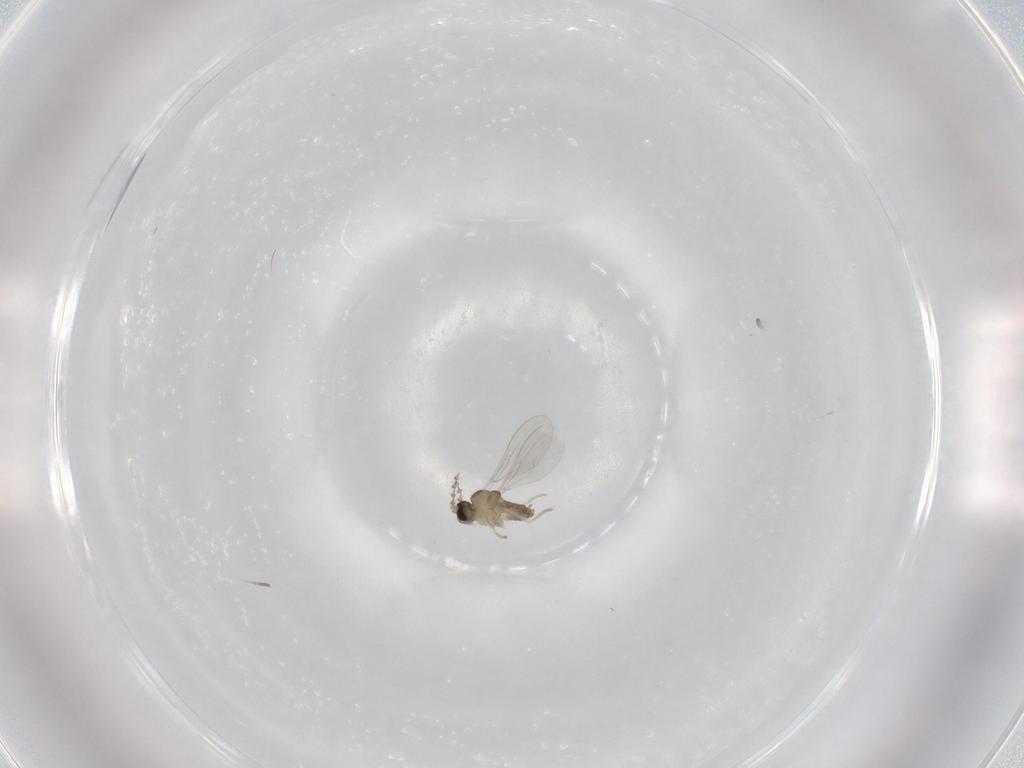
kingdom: Animalia
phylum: Arthropoda
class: Insecta
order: Diptera
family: Cecidomyiidae
